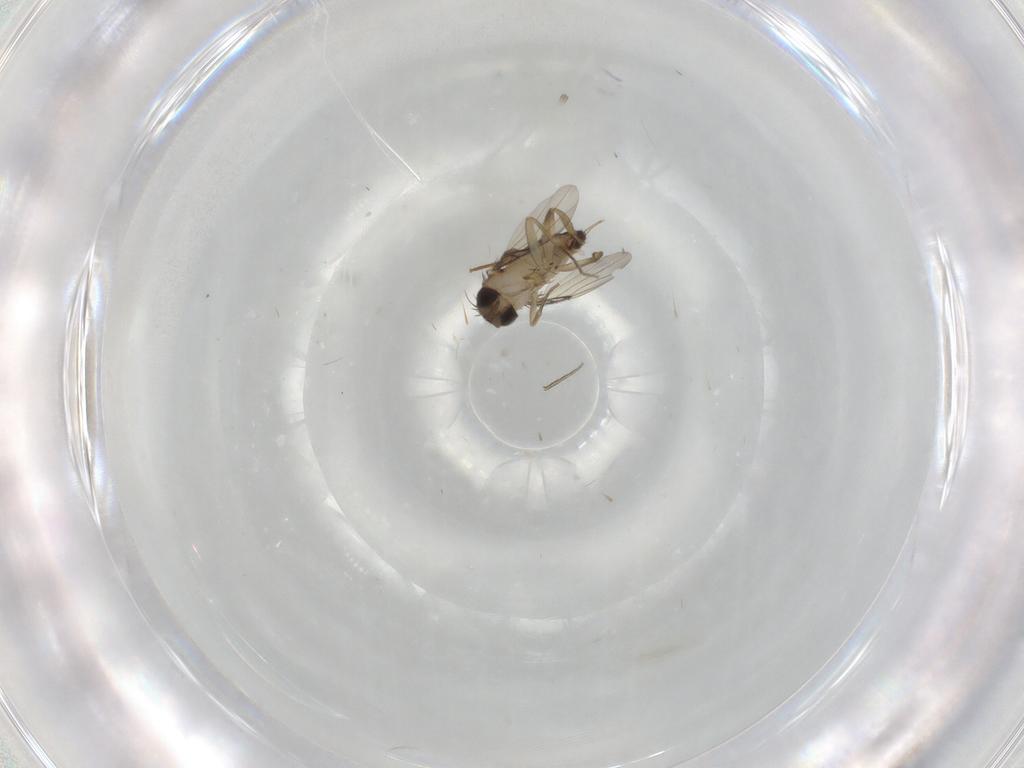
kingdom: Animalia
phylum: Arthropoda
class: Insecta
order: Diptera
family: Phoridae
